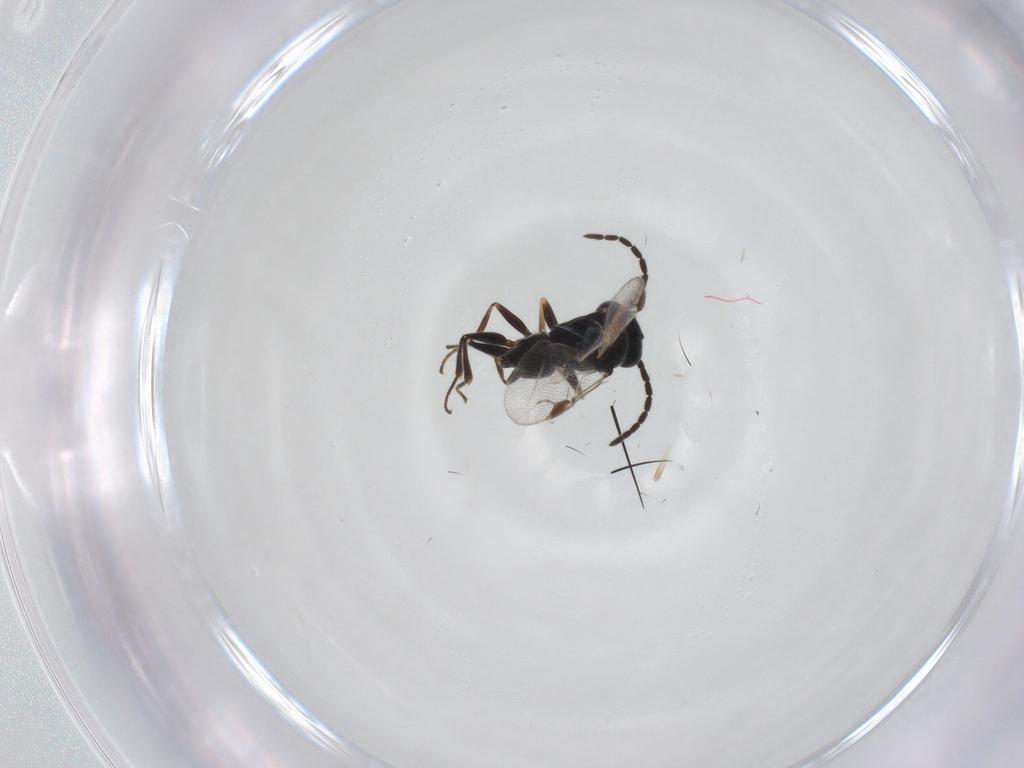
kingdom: Animalia
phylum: Arthropoda
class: Insecta
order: Hymenoptera
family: Dryinidae
